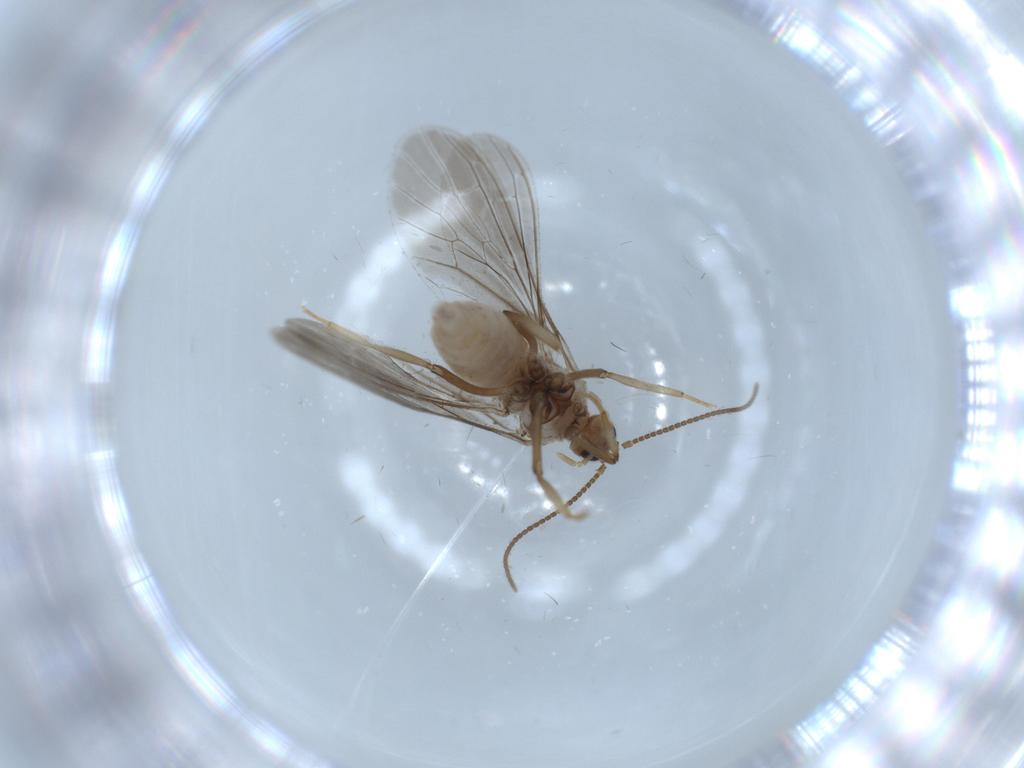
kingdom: Animalia
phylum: Arthropoda
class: Insecta
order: Neuroptera
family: Coniopterygidae
